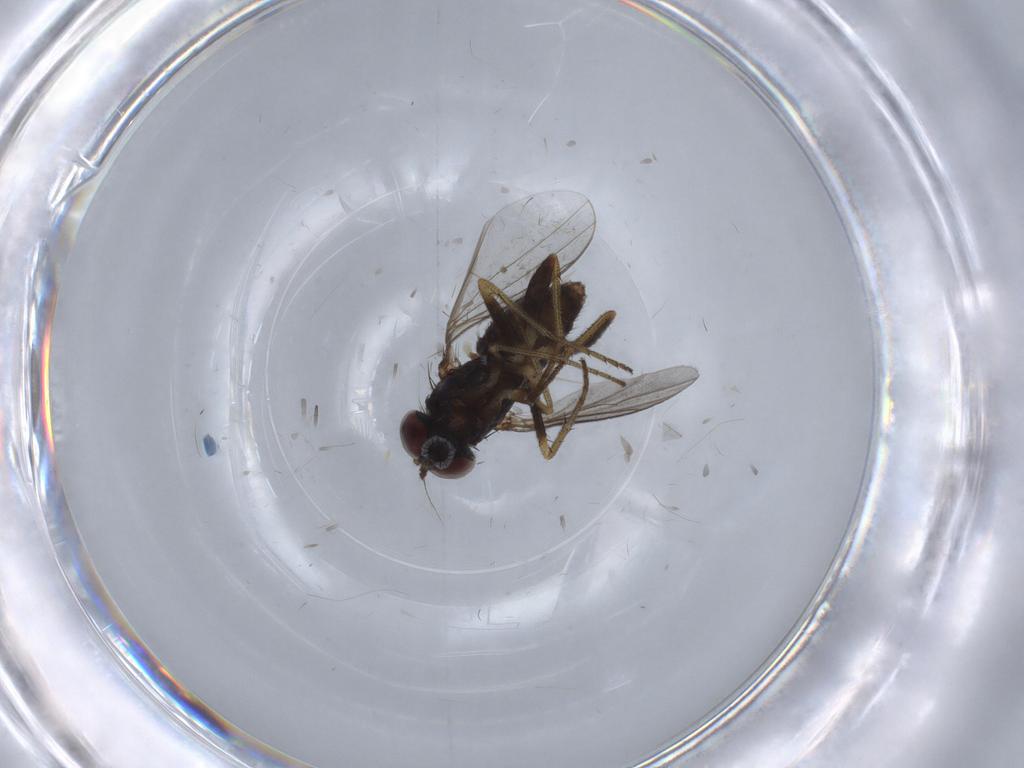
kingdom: Animalia
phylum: Arthropoda
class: Insecta
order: Diptera
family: Dolichopodidae
